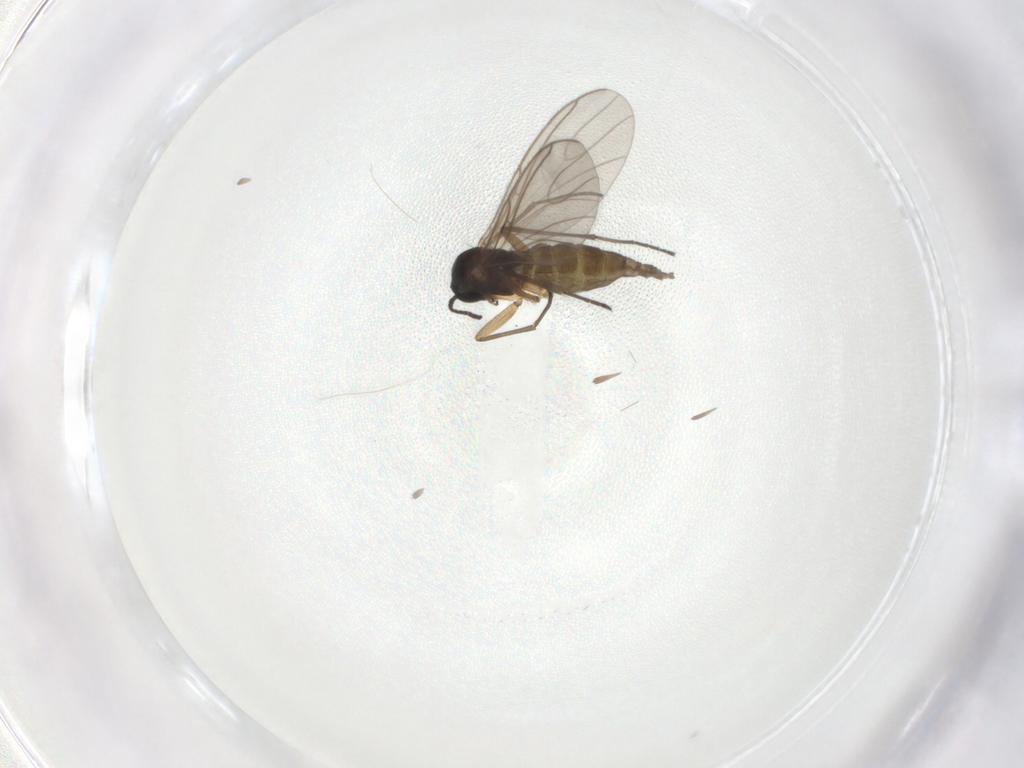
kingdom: Animalia
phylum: Arthropoda
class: Insecta
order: Diptera
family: Sciaridae
